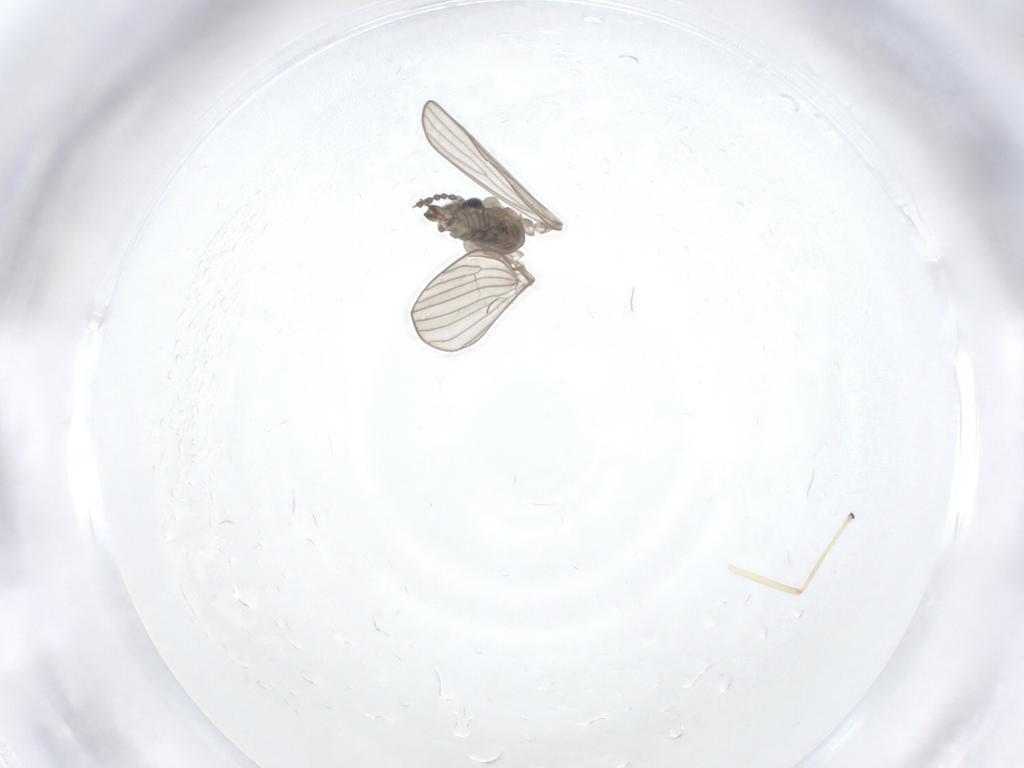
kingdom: Animalia
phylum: Arthropoda
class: Insecta
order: Diptera
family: Chironomidae
